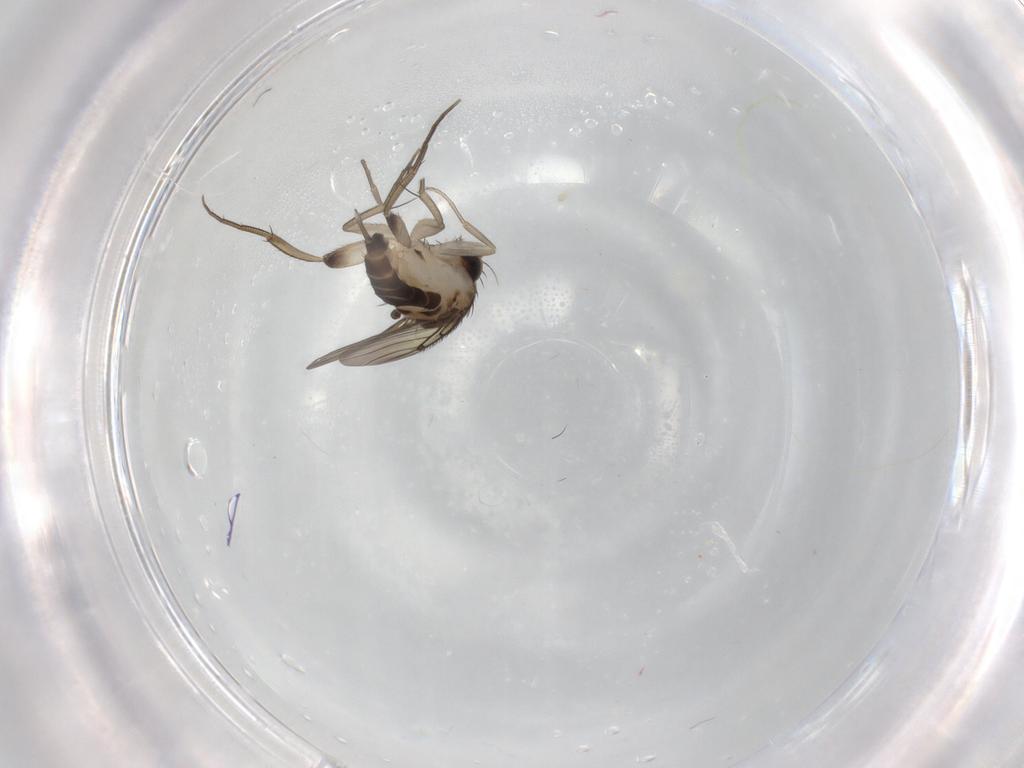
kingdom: Animalia
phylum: Arthropoda
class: Insecta
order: Diptera
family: Phoridae
